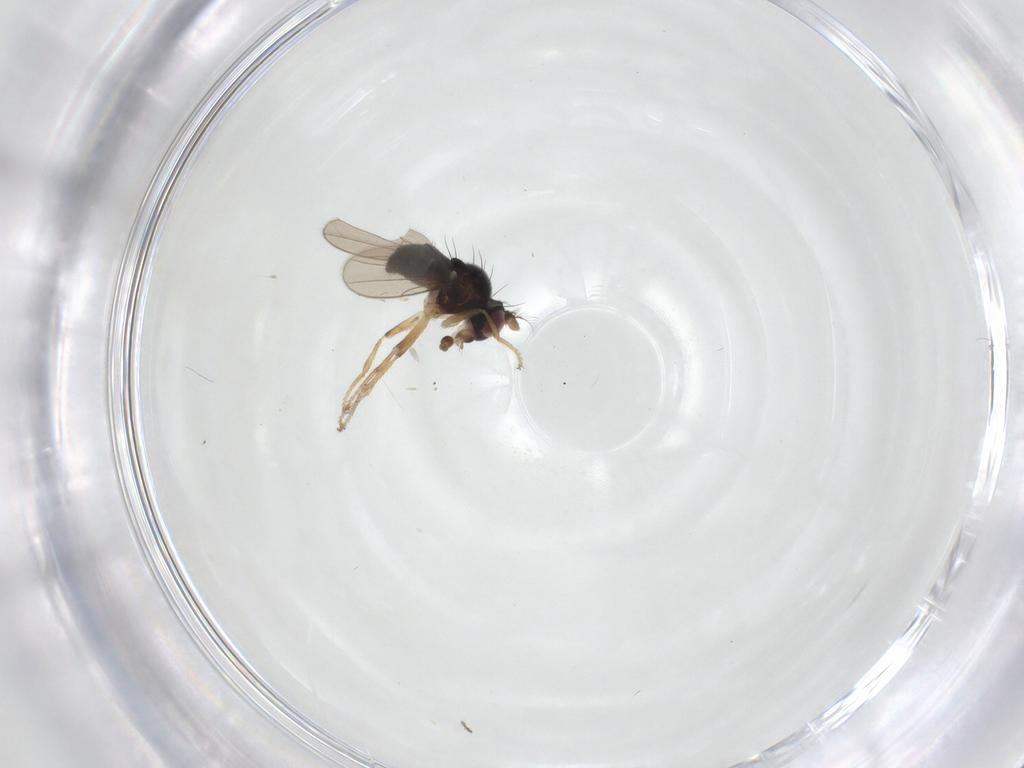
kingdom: Animalia
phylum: Arthropoda
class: Insecta
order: Diptera
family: Ephydridae
